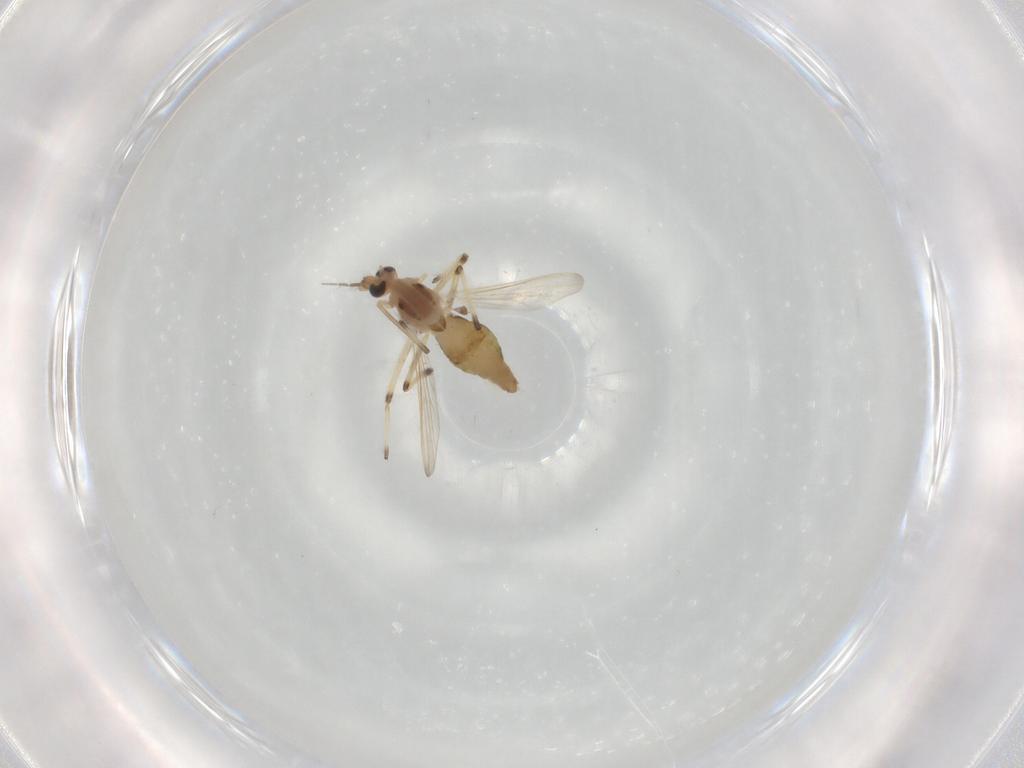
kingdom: Animalia
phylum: Arthropoda
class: Insecta
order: Diptera
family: Chironomidae
